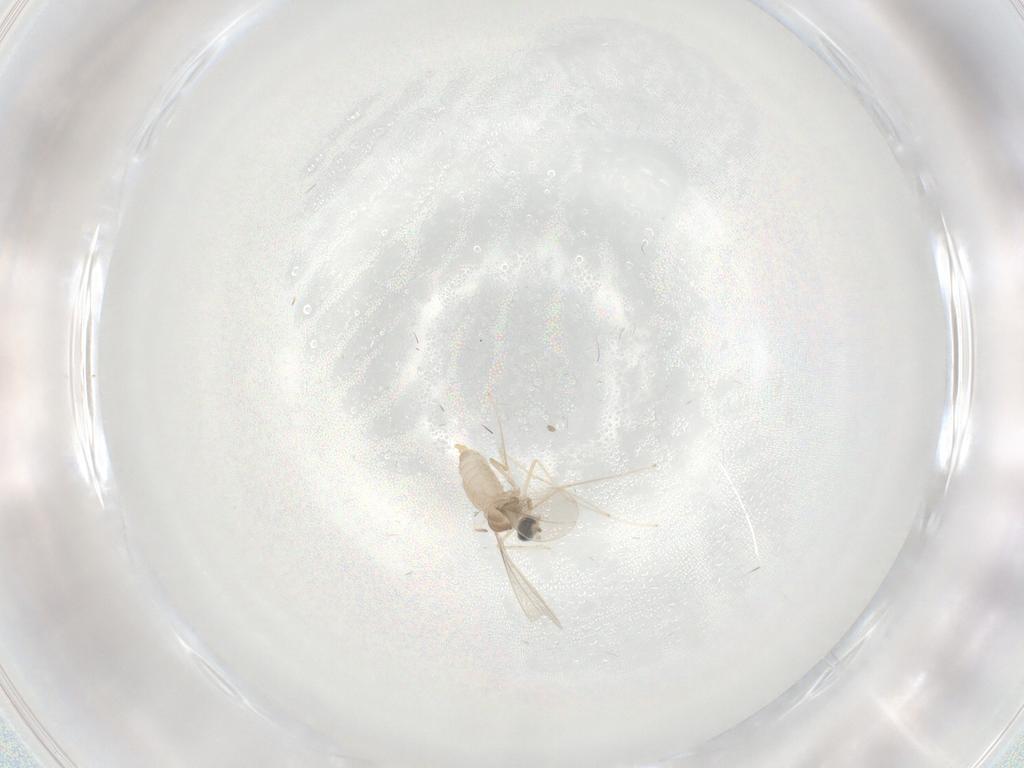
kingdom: Animalia
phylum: Arthropoda
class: Insecta
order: Diptera
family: Cecidomyiidae
